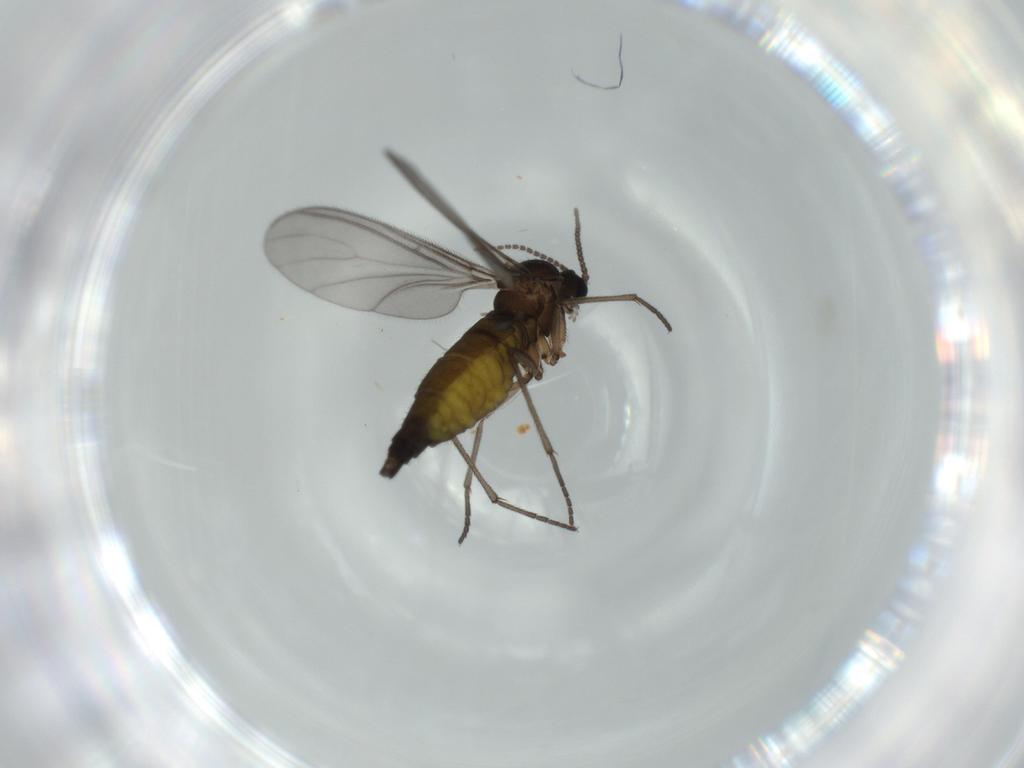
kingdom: Animalia
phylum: Arthropoda
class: Insecta
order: Diptera
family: Sciaridae
